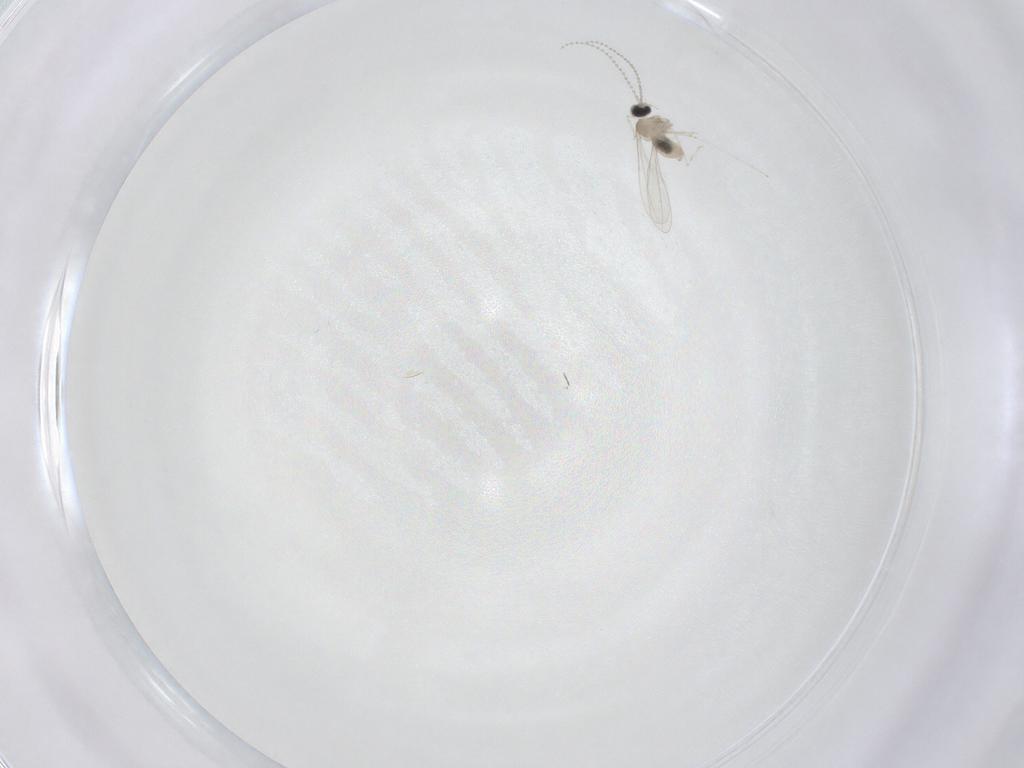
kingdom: Animalia
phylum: Arthropoda
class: Insecta
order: Diptera
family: Cecidomyiidae
